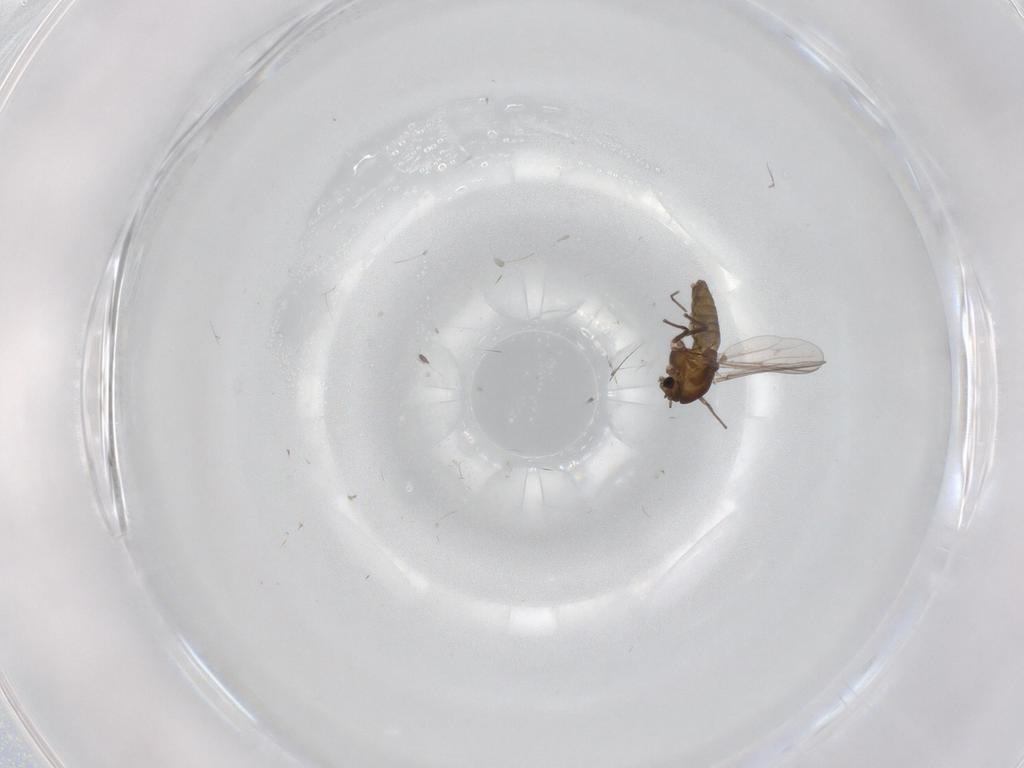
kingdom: Animalia
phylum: Arthropoda
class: Insecta
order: Diptera
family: Chironomidae
